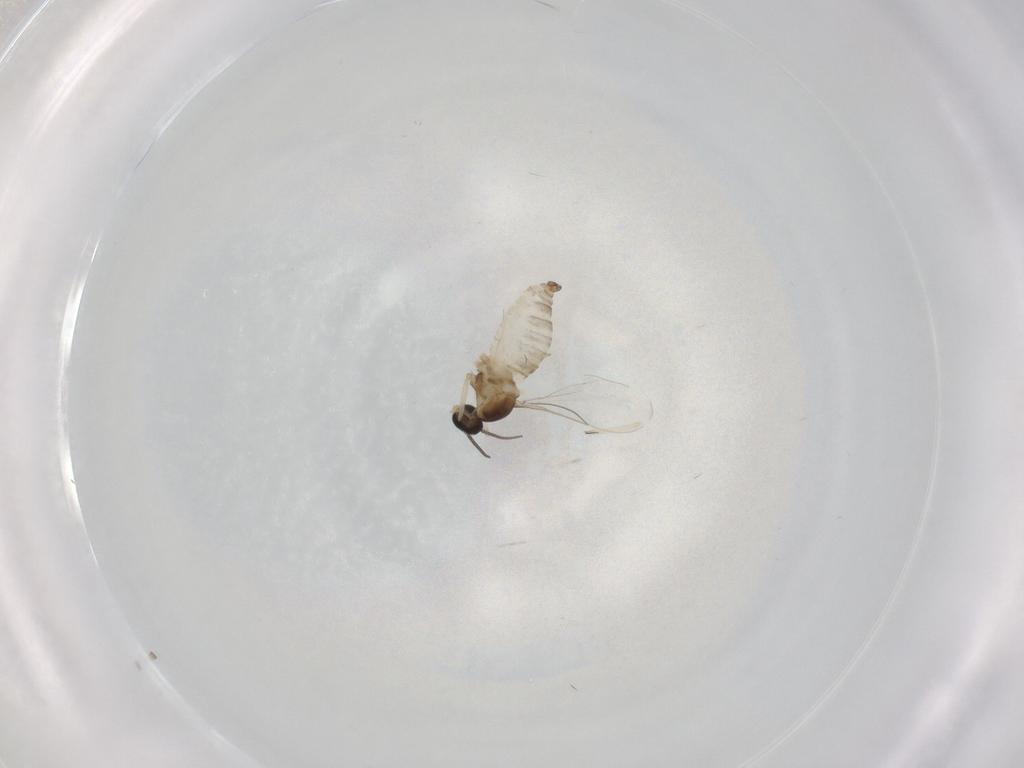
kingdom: Animalia
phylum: Arthropoda
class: Insecta
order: Diptera
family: Cecidomyiidae
